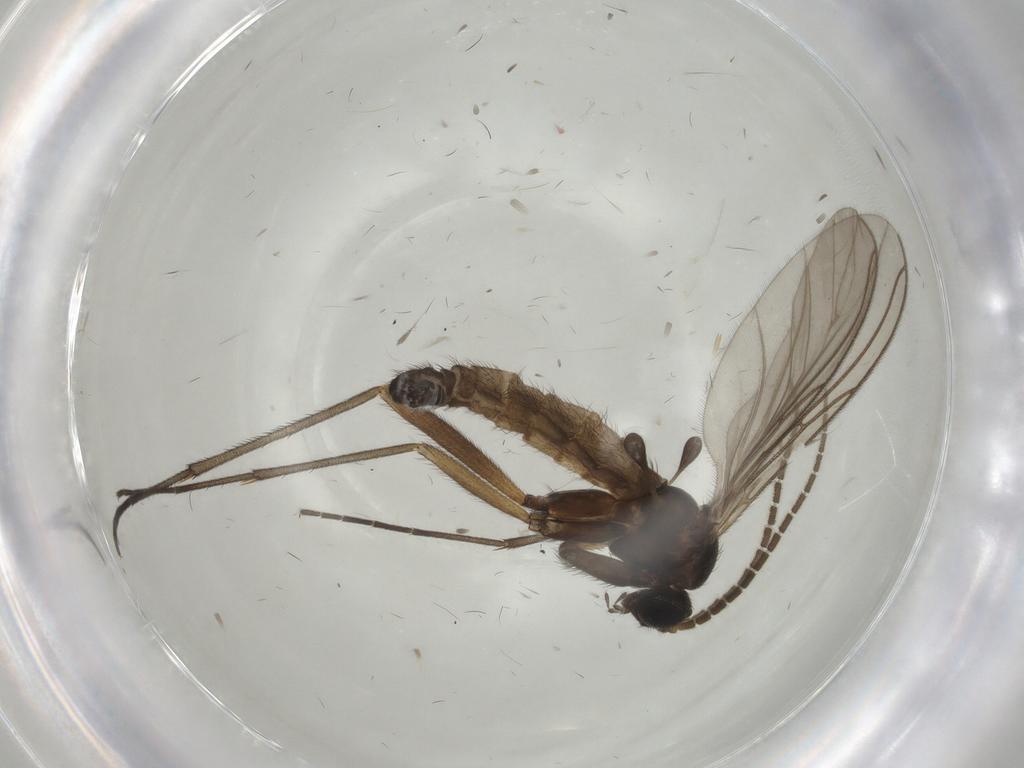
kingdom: Animalia
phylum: Arthropoda
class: Insecta
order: Diptera
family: Sciaridae
